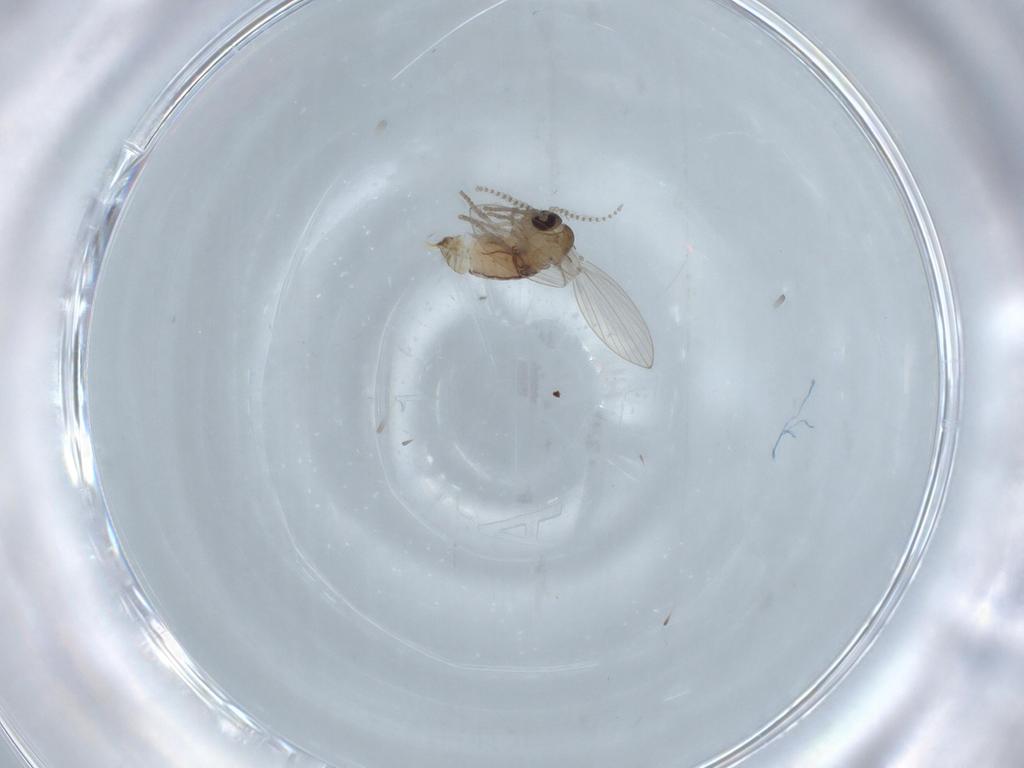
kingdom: Animalia
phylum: Arthropoda
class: Insecta
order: Diptera
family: Psychodidae
